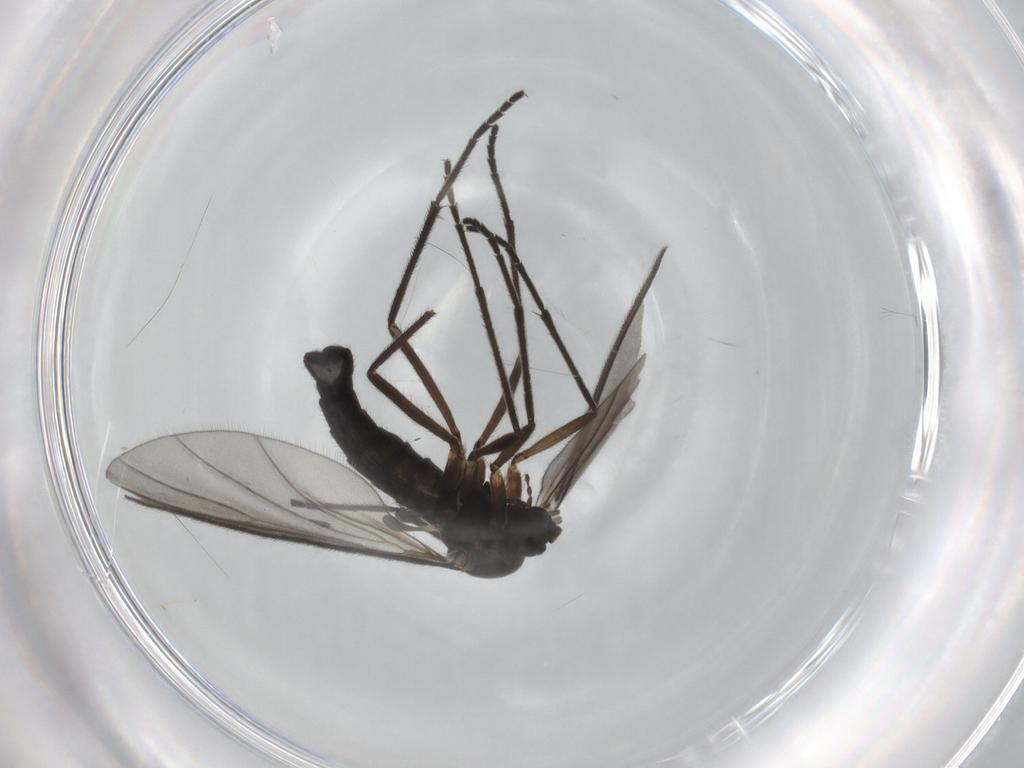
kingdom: Animalia
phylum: Arthropoda
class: Insecta
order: Diptera
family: Sciaridae
